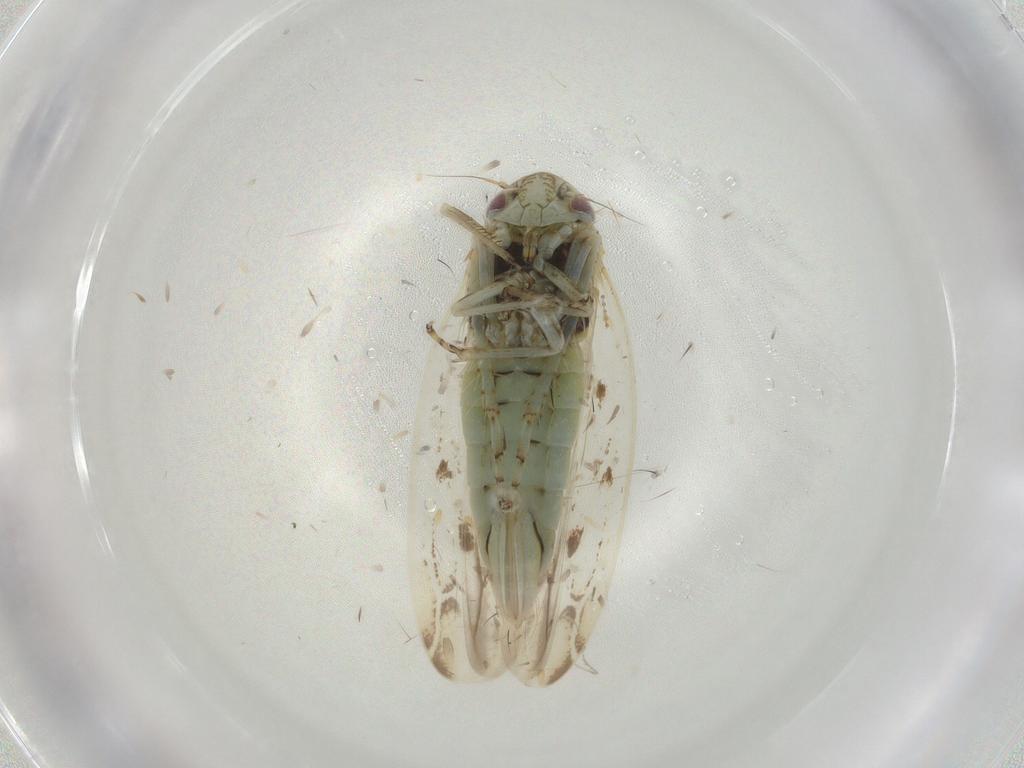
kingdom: Animalia
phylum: Arthropoda
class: Insecta
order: Hemiptera
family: Cicadellidae
